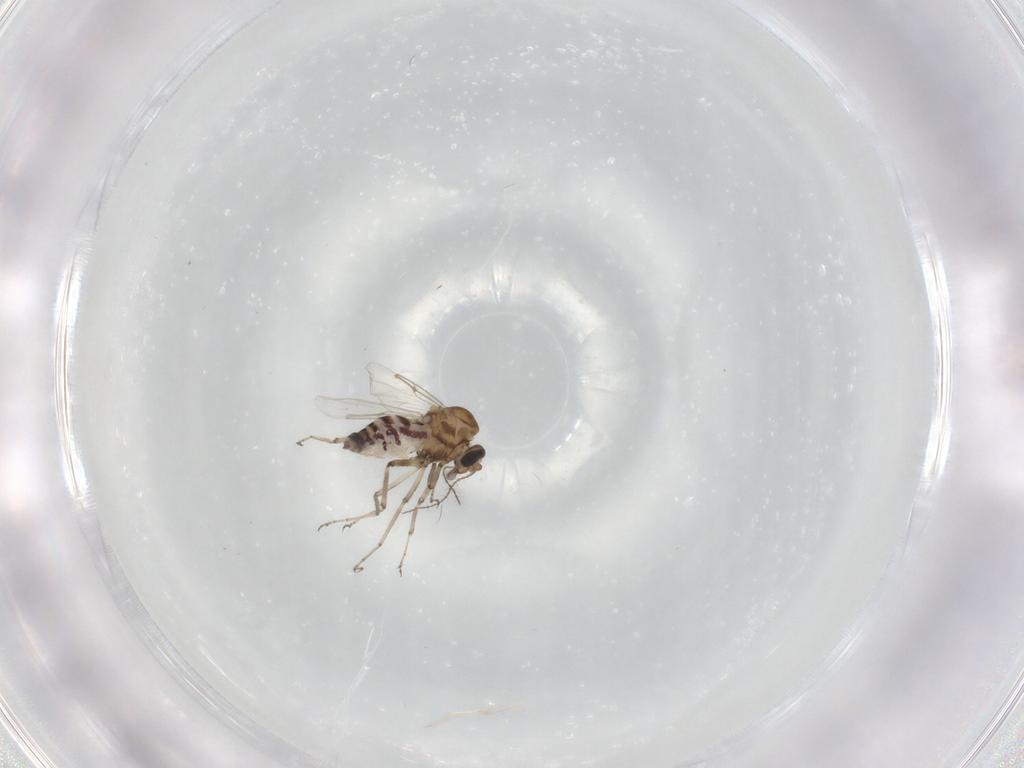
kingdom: Animalia
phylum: Arthropoda
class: Insecta
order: Diptera
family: Ceratopogonidae
